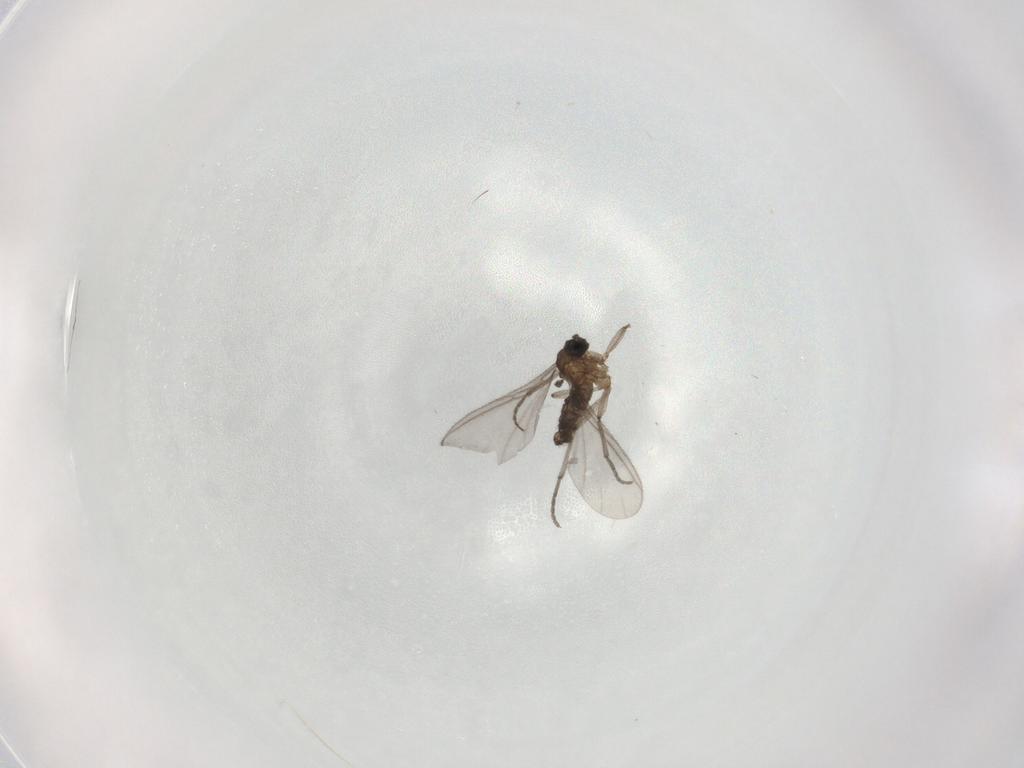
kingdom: Animalia
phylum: Arthropoda
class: Insecta
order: Diptera
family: Sciaridae
